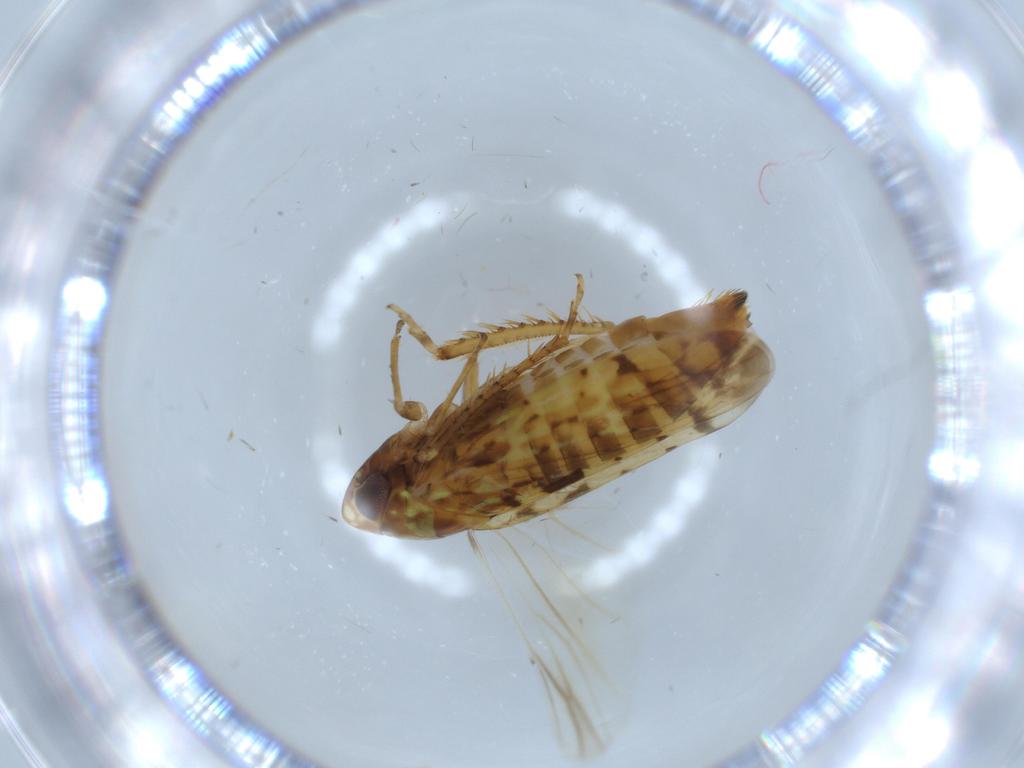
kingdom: Animalia
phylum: Arthropoda
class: Insecta
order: Hemiptera
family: Cicadellidae
